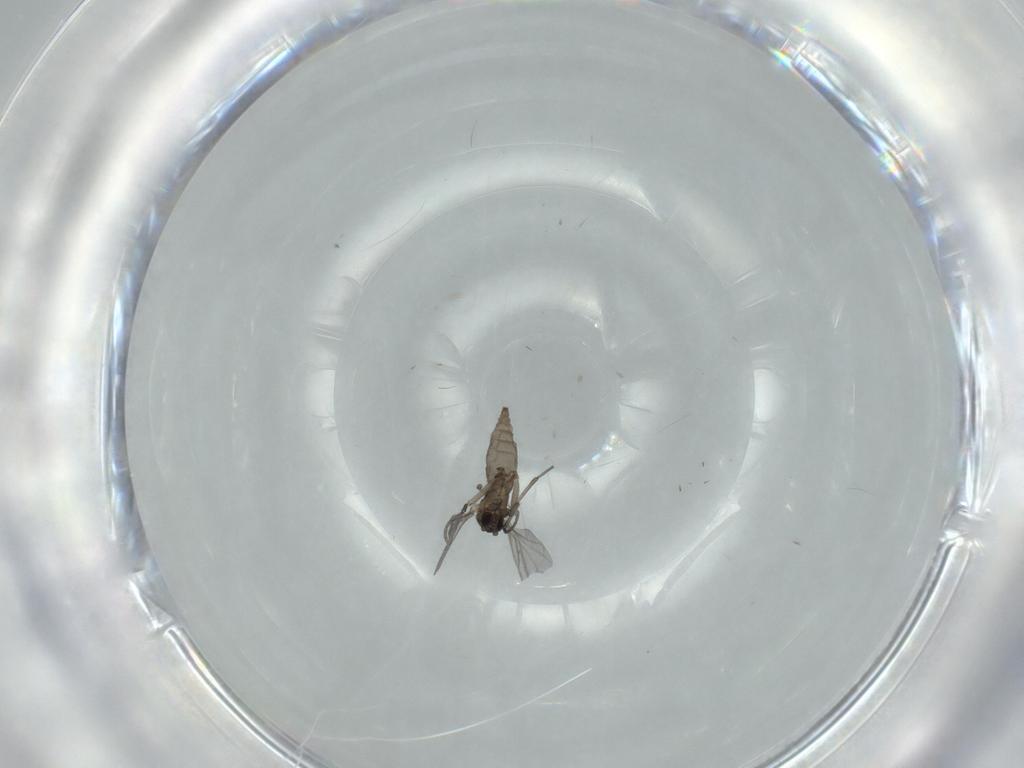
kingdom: Animalia
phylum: Arthropoda
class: Insecta
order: Diptera
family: Sciaridae
